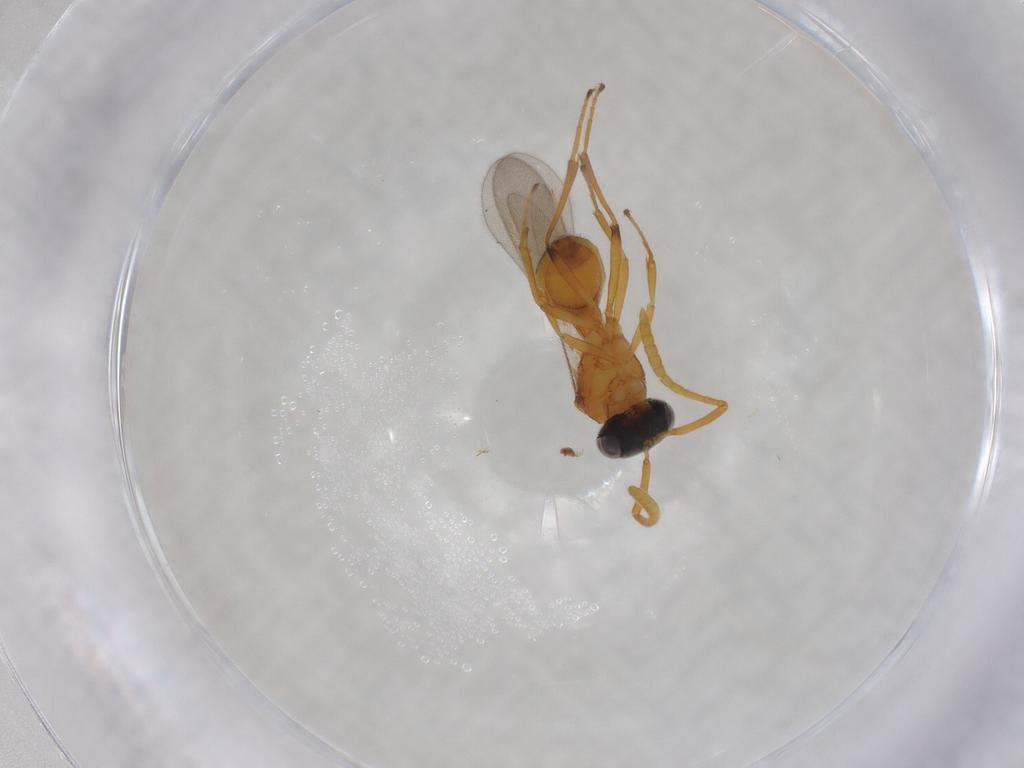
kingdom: Animalia
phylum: Arthropoda
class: Insecta
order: Hymenoptera
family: Scelionidae
